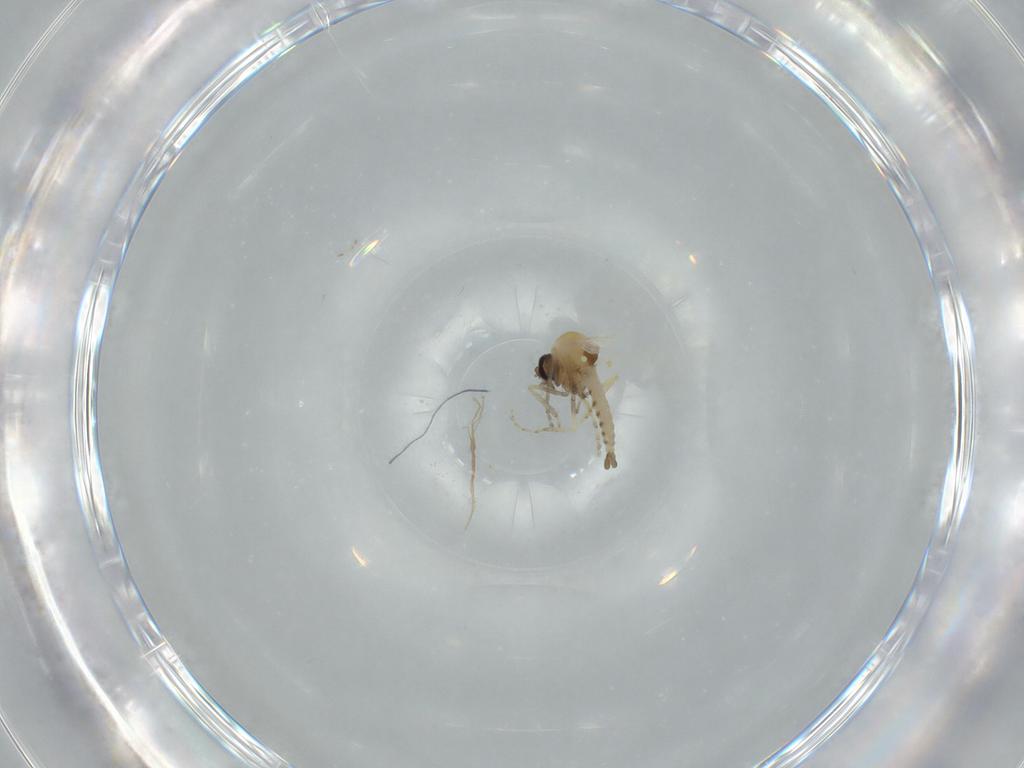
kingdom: Animalia
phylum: Arthropoda
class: Insecta
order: Diptera
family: Ceratopogonidae
